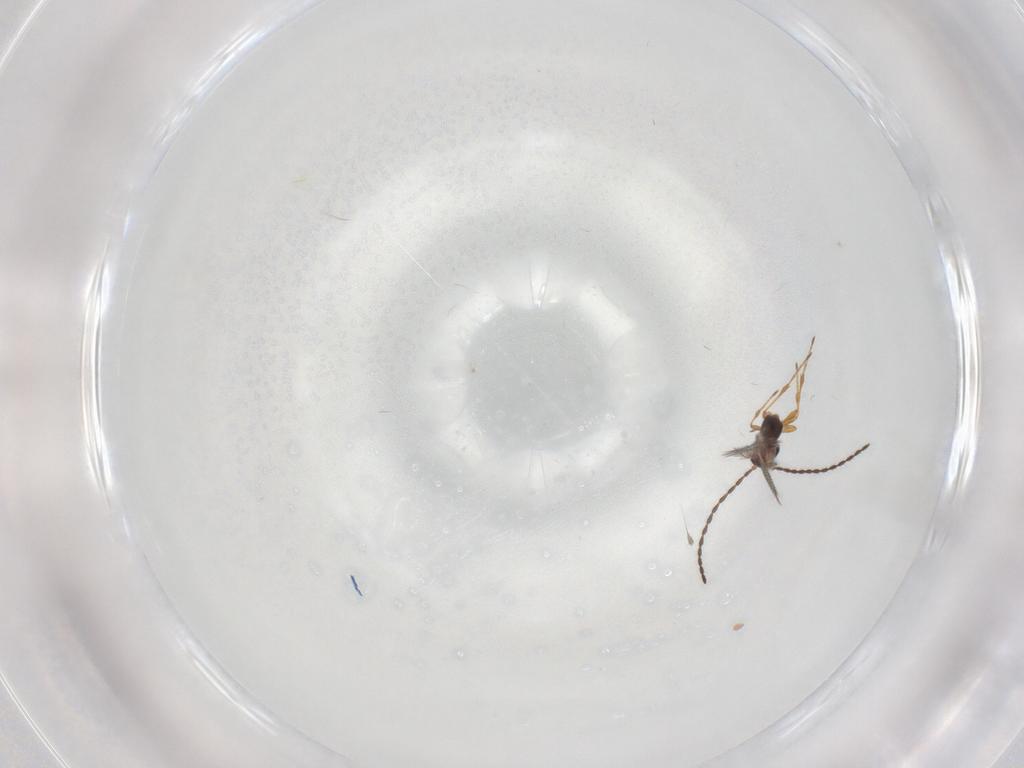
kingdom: Animalia
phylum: Arthropoda
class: Insecta
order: Hymenoptera
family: Diapriidae
